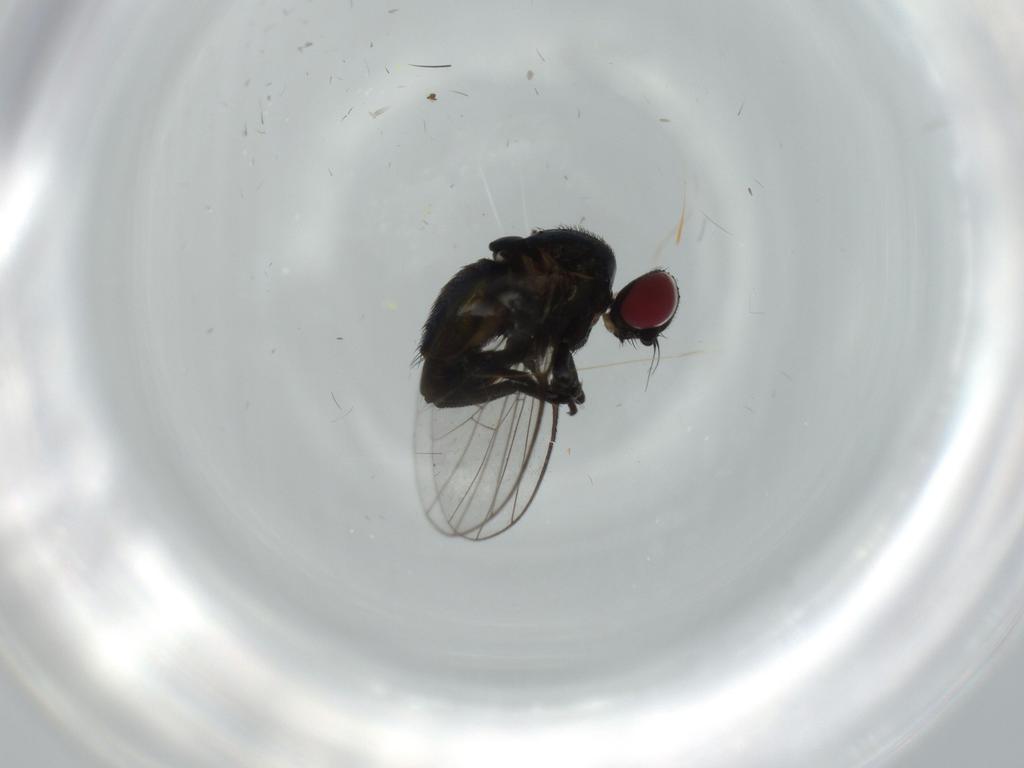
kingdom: Animalia
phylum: Arthropoda
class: Insecta
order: Diptera
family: Agromyzidae
